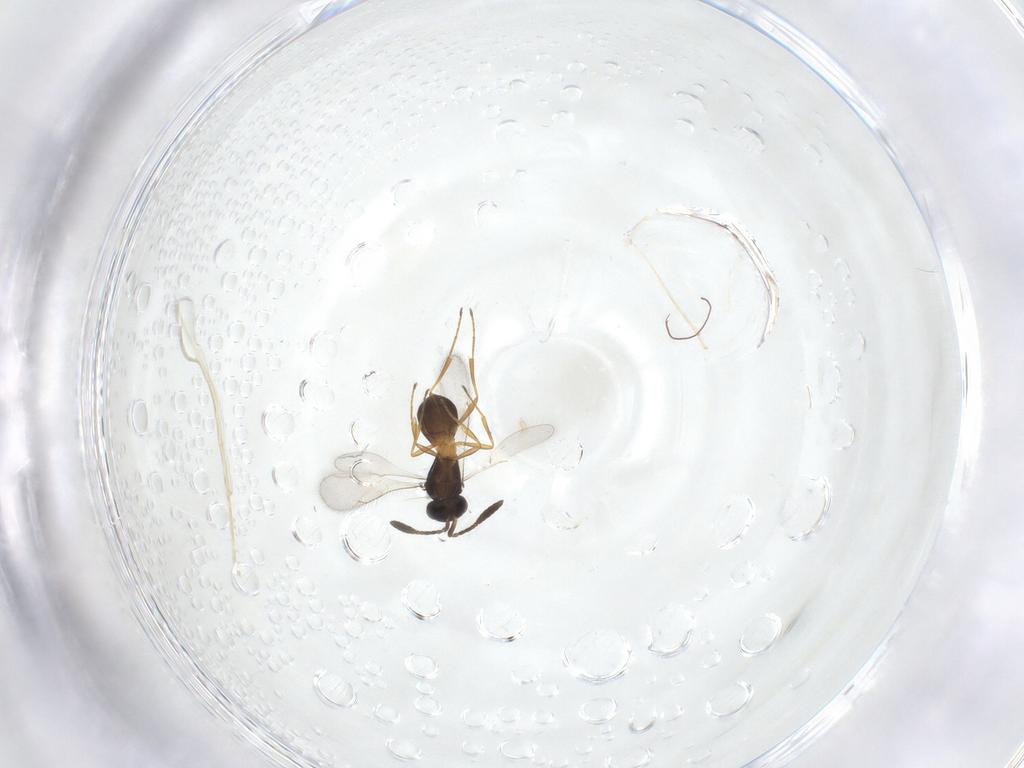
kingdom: Animalia
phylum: Arthropoda
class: Insecta
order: Hymenoptera
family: Scelionidae
